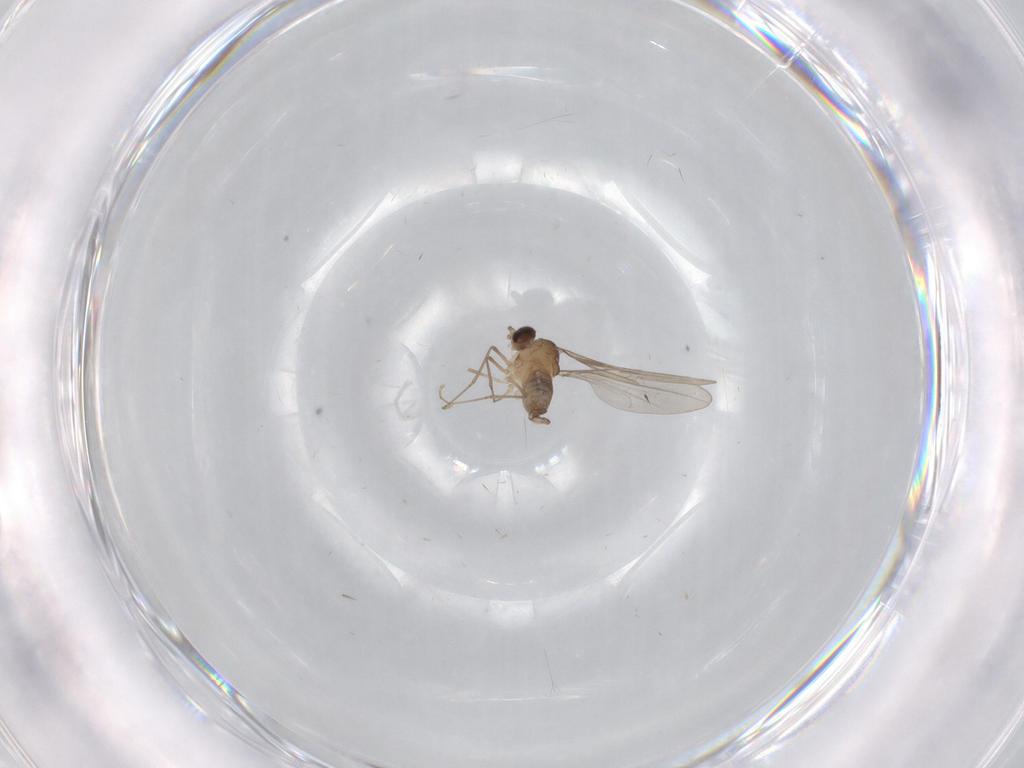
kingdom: Animalia
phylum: Arthropoda
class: Insecta
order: Diptera
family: Cecidomyiidae
